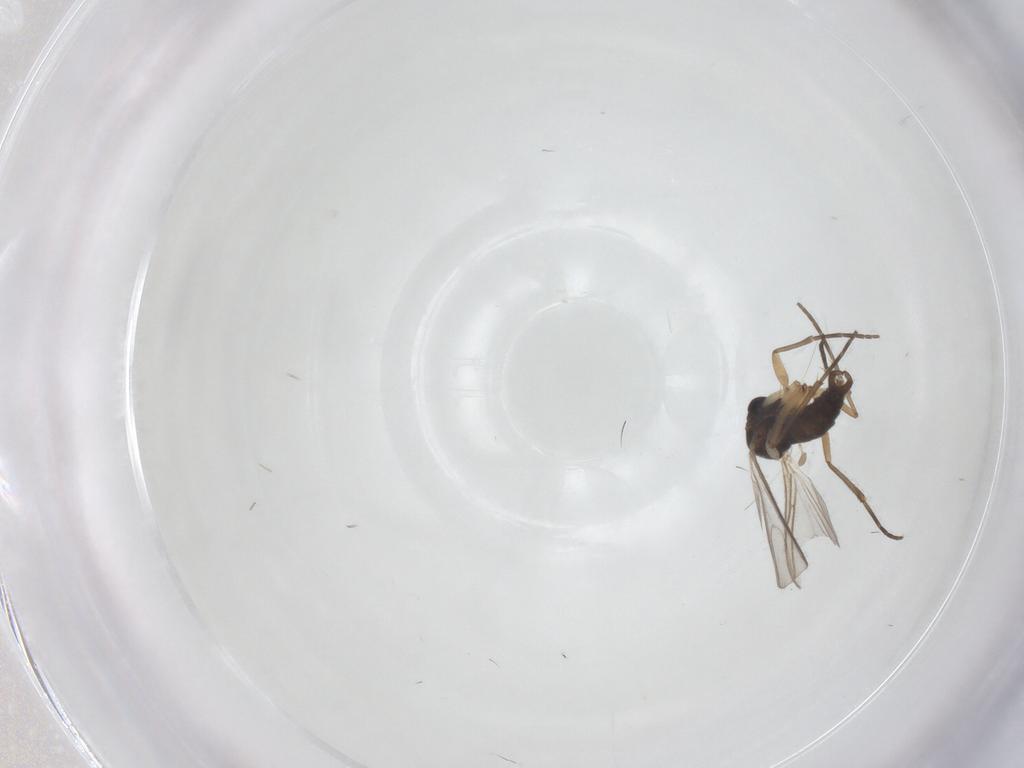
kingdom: Animalia
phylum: Arthropoda
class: Insecta
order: Diptera
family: Sciaridae
